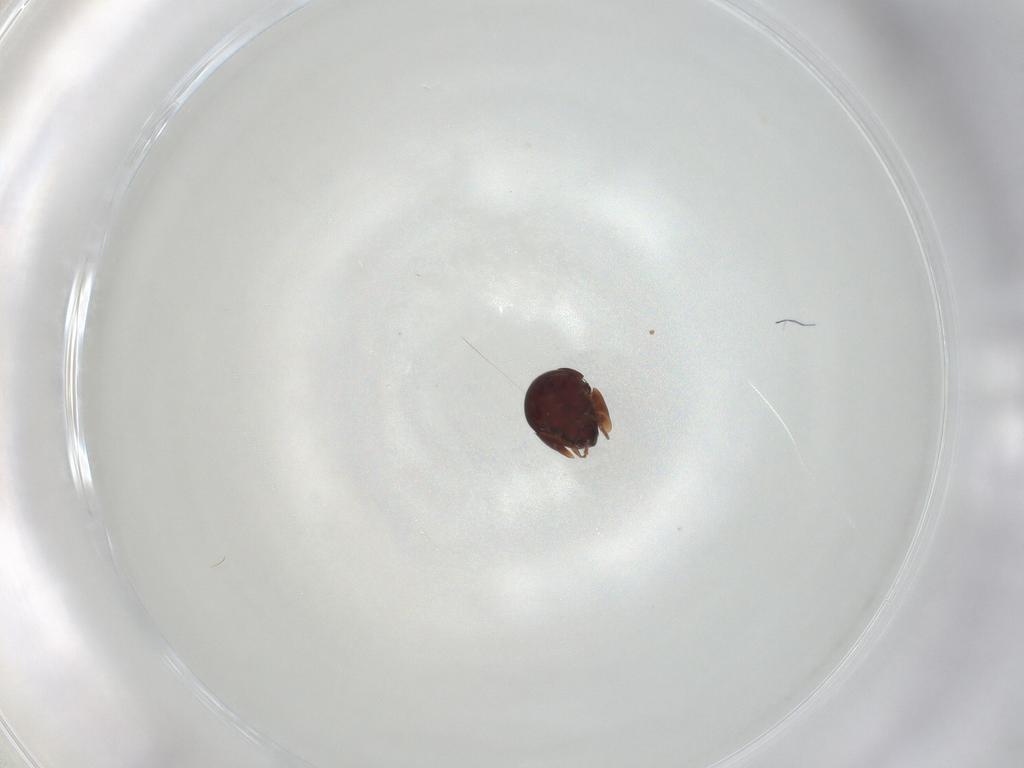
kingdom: Animalia
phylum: Arthropoda
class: Arachnida
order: Sarcoptiformes
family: Galumnidae
